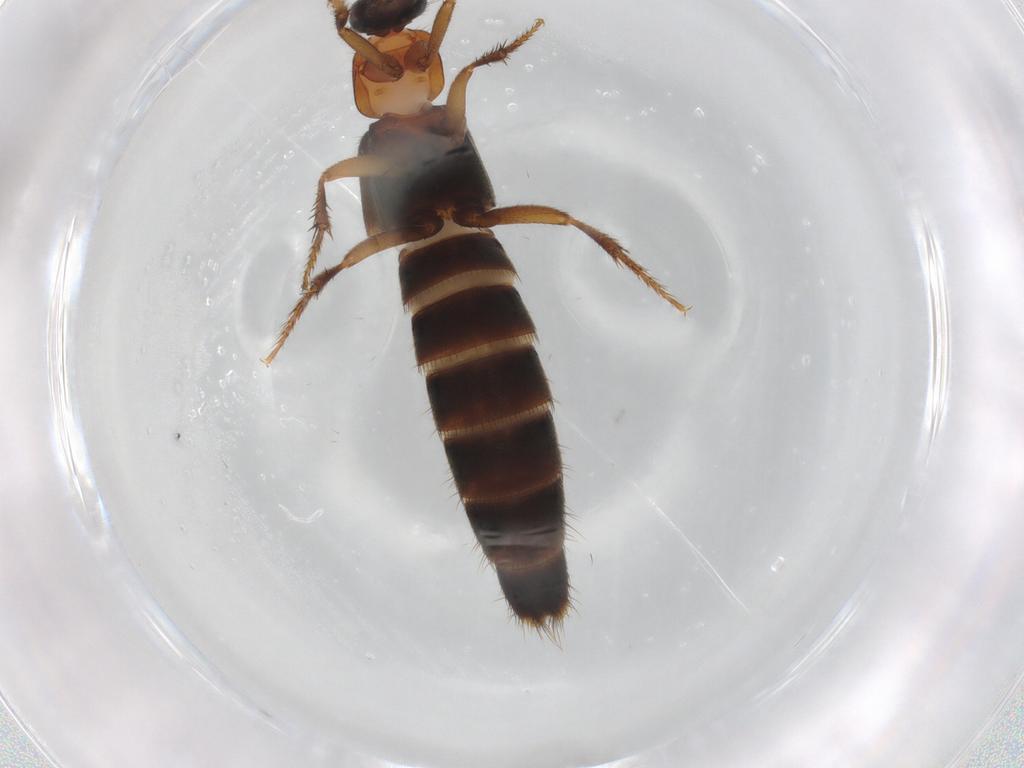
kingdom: Animalia
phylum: Arthropoda
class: Insecta
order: Coleoptera
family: Staphylinidae
